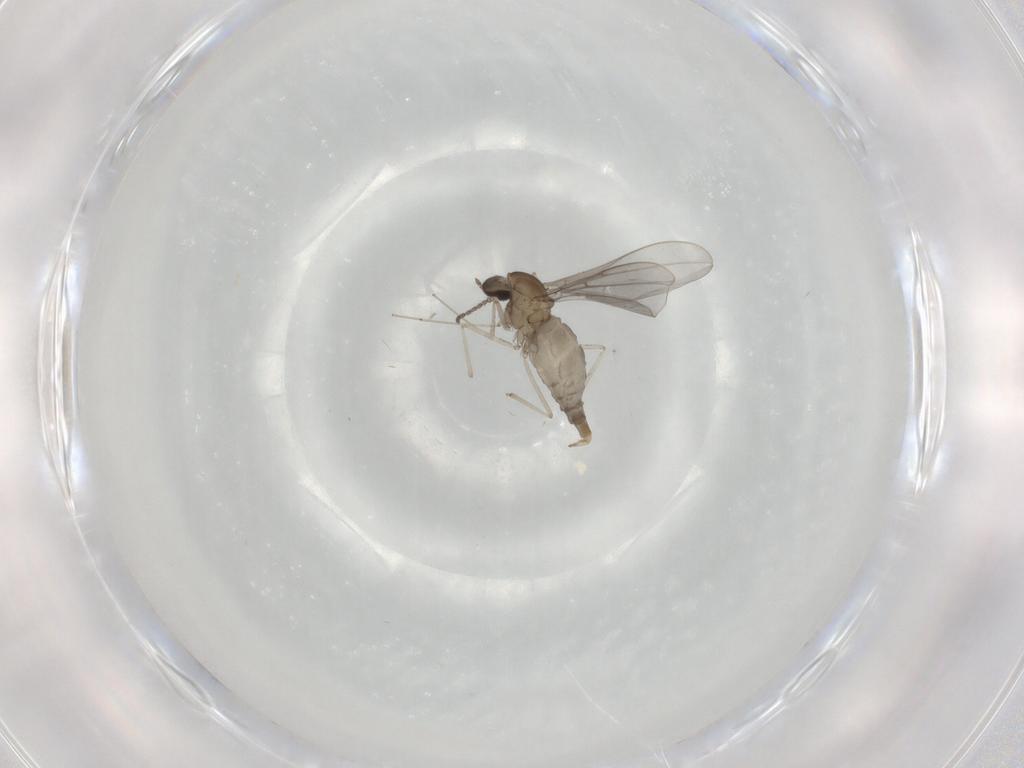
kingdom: Animalia
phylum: Arthropoda
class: Insecta
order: Diptera
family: Cecidomyiidae
